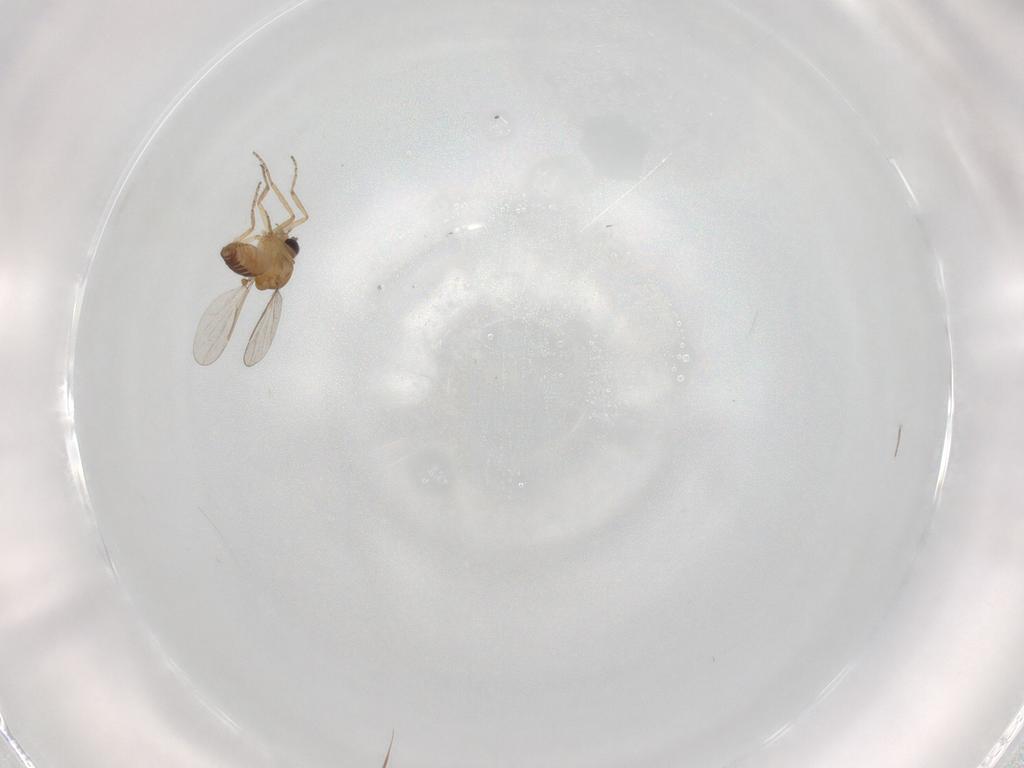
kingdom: Animalia
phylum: Arthropoda
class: Insecta
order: Diptera
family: Ceratopogonidae
